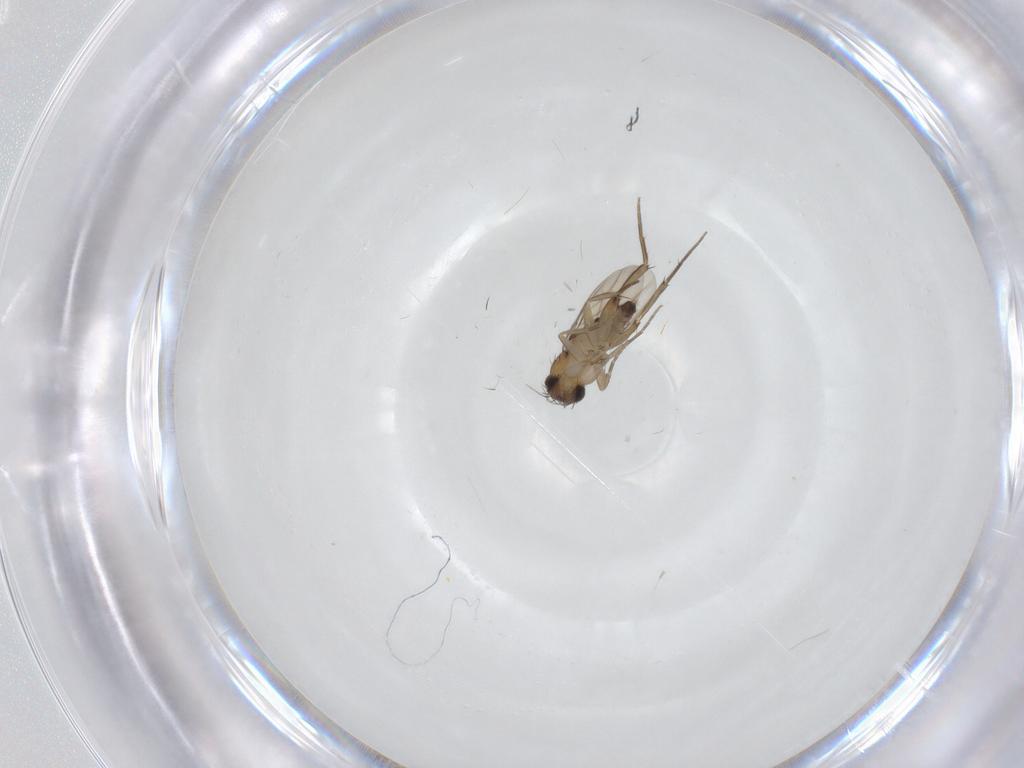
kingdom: Animalia
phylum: Arthropoda
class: Insecta
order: Diptera
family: Phoridae
